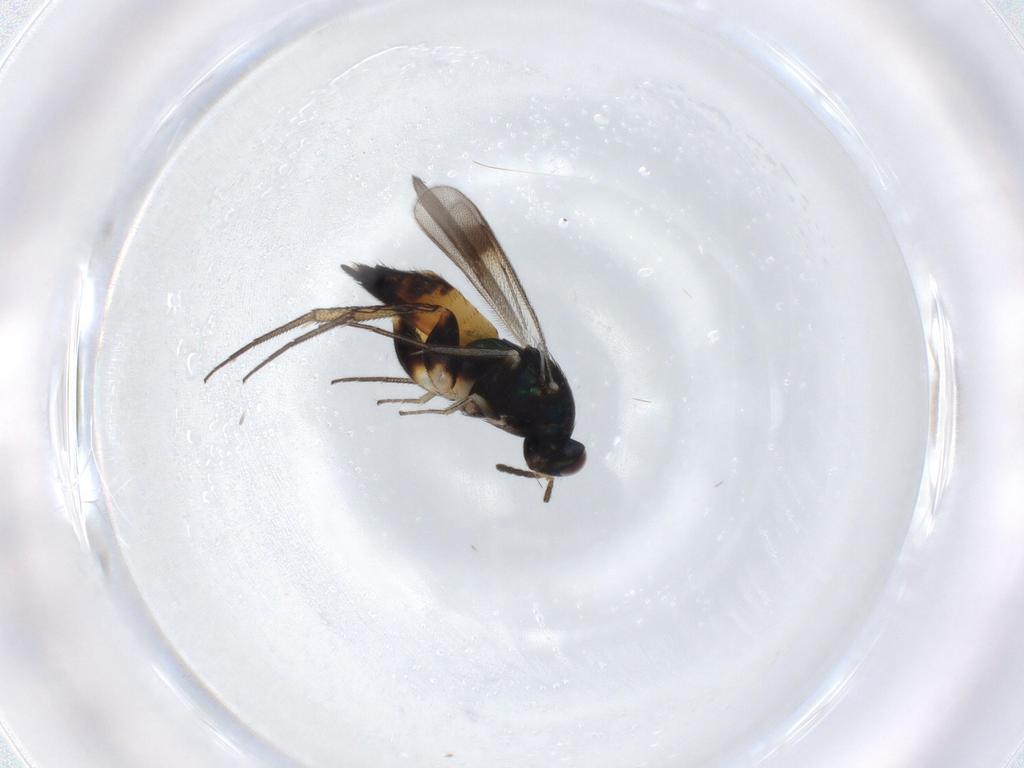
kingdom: Animalia
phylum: Arthropoda
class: Insecta
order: Hymenoptera
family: Eulophidae
